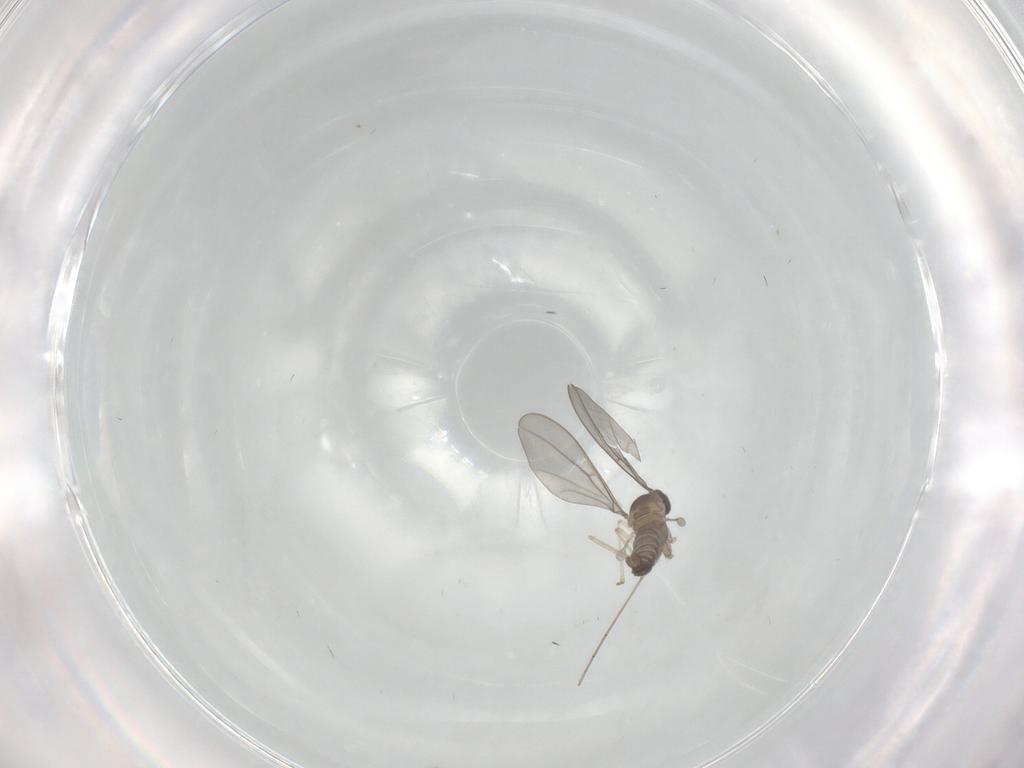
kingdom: Animalia
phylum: Arthropoda
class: Insecta
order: Diptera
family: Cecidomyiidae
